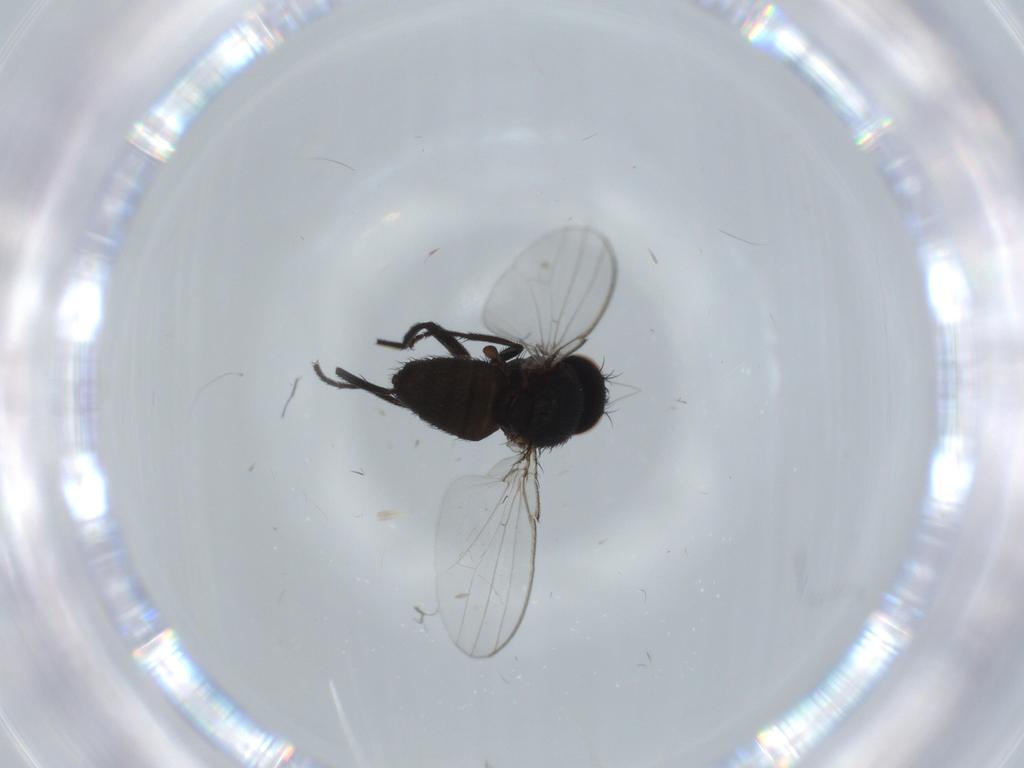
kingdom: Animalia
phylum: Arthropoda
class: Insecta
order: Diptera
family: Milichiidae
